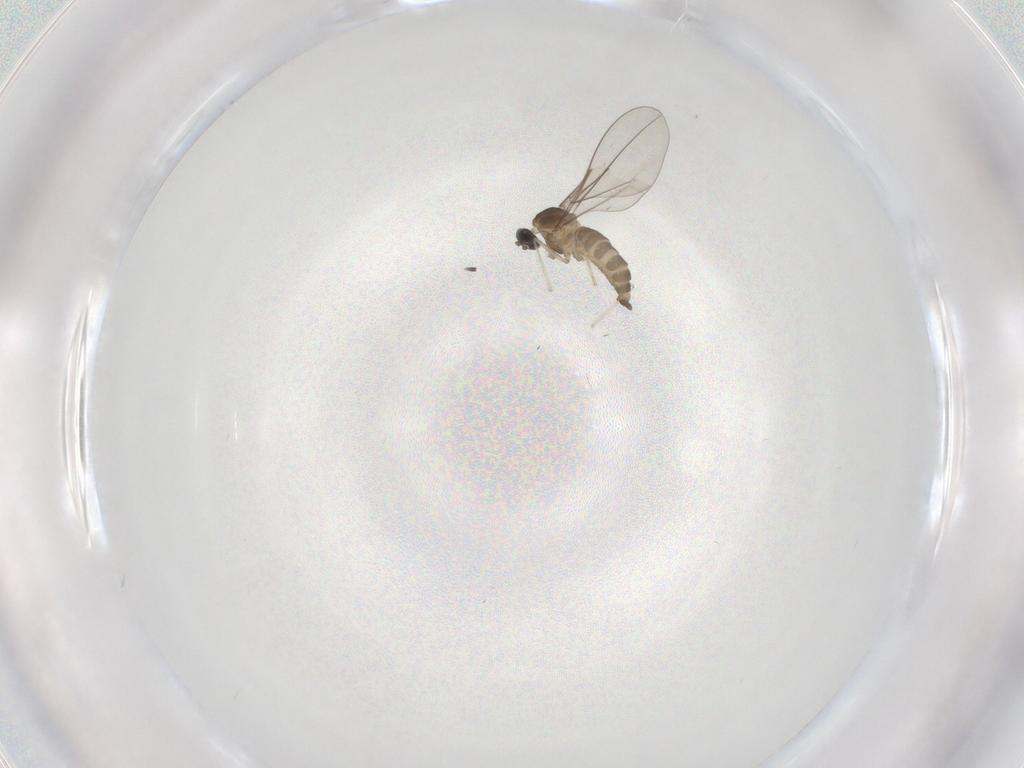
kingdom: Animalia
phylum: Arthropoda
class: Insecta
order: Diptera
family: Cecidomyiidae
